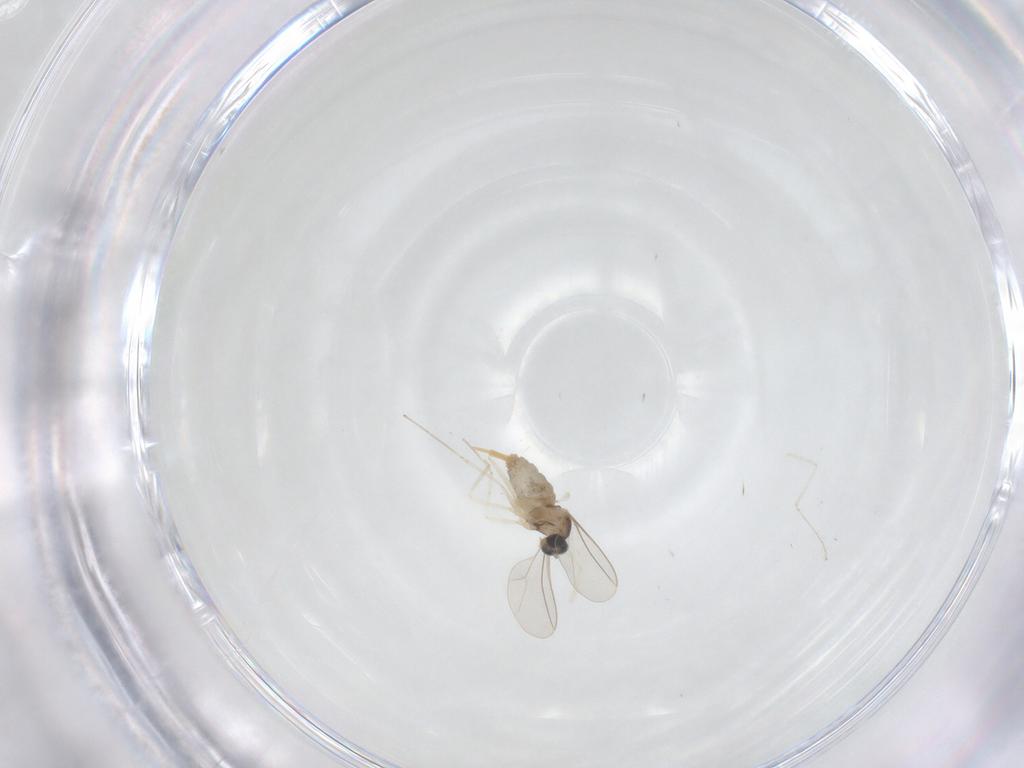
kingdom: Animalia
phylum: Arthropoda
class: Insecta
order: Diptera
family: Cecidomyiidae
